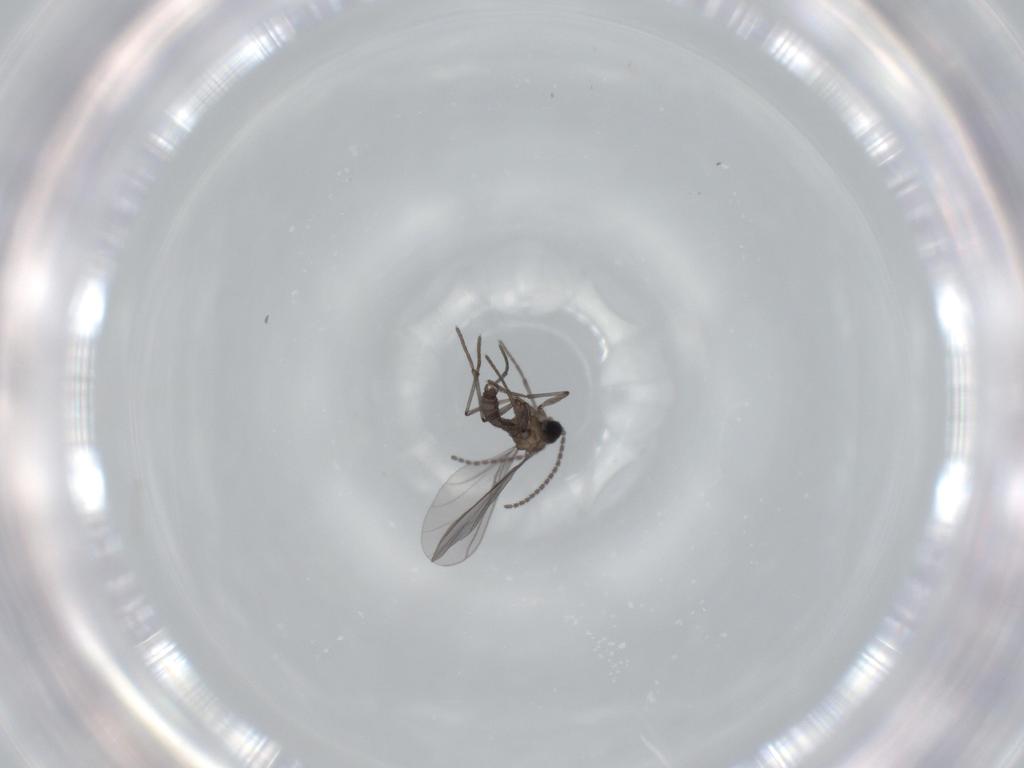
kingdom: Animalia
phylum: Arthropoda
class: Insecta
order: Diptera
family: Sciaridae
